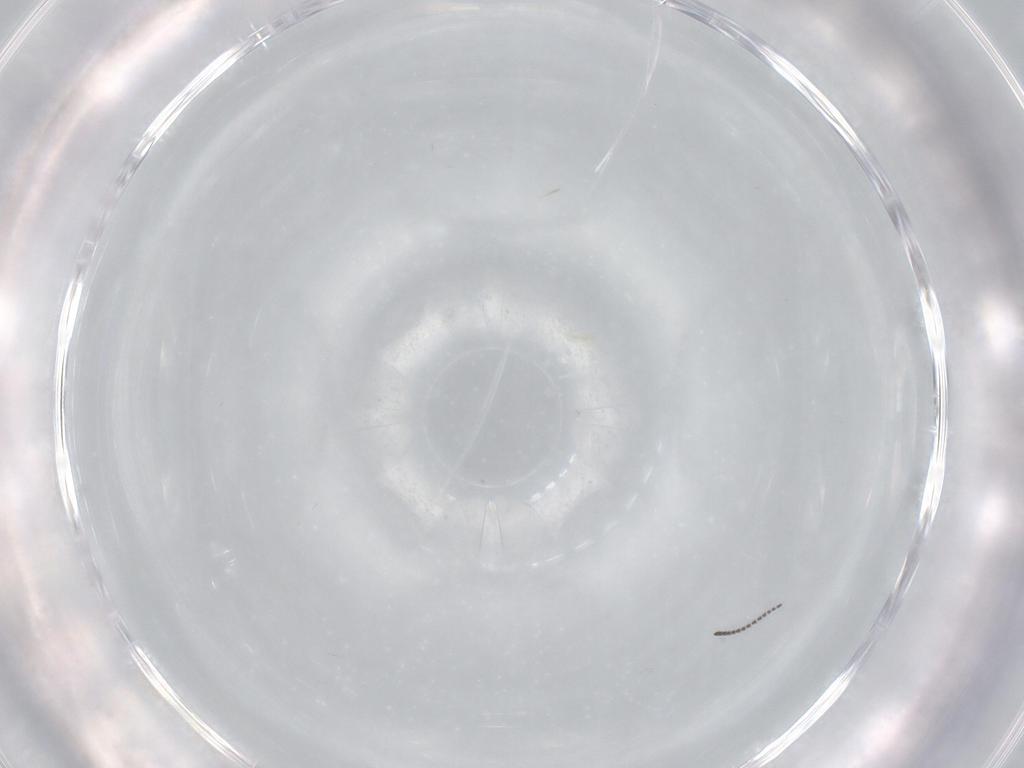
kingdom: Animalia
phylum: Arthropoda
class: Insecta
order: Hemiptera
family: Aleyrodidae
